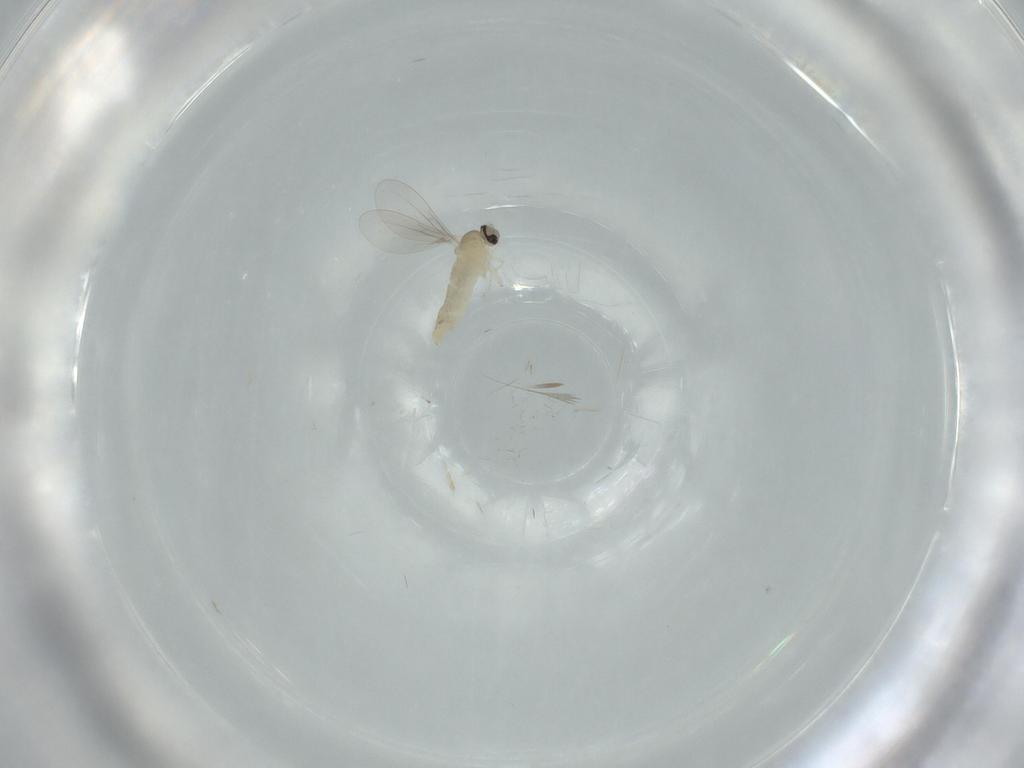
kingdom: Animalia
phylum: Arthropoda
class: Insecta
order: Diptera
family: Cecidomyiidae
